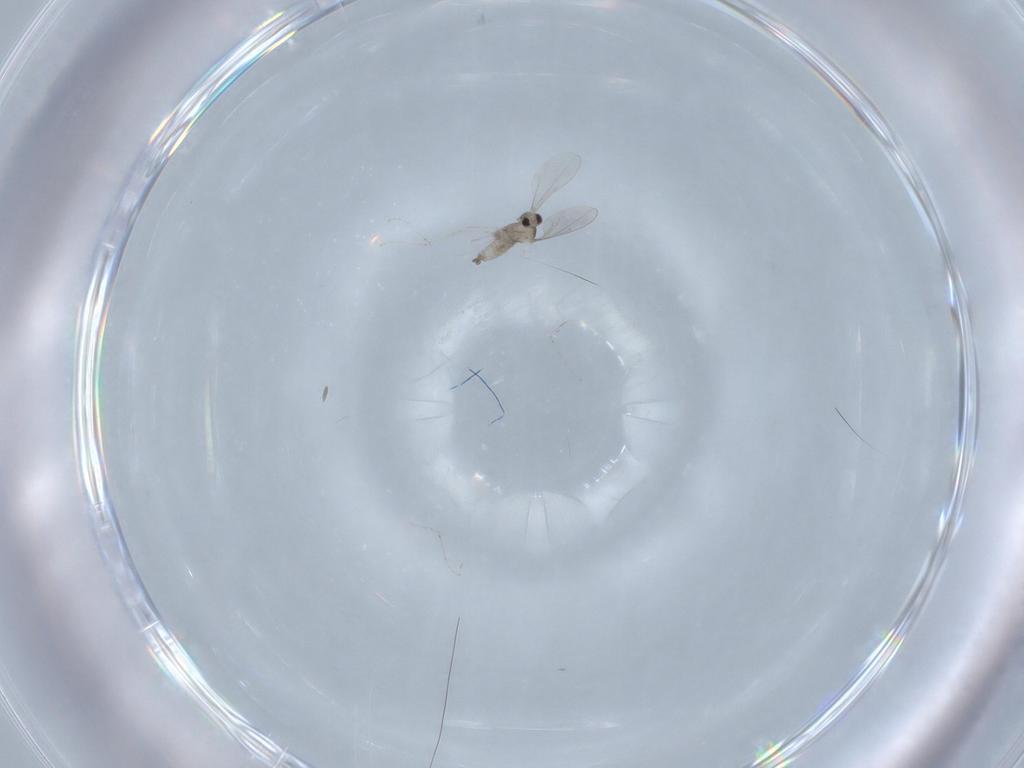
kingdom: Animalia
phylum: Arthropoda
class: Insecta
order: Diptera
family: Cecidomyiidae
